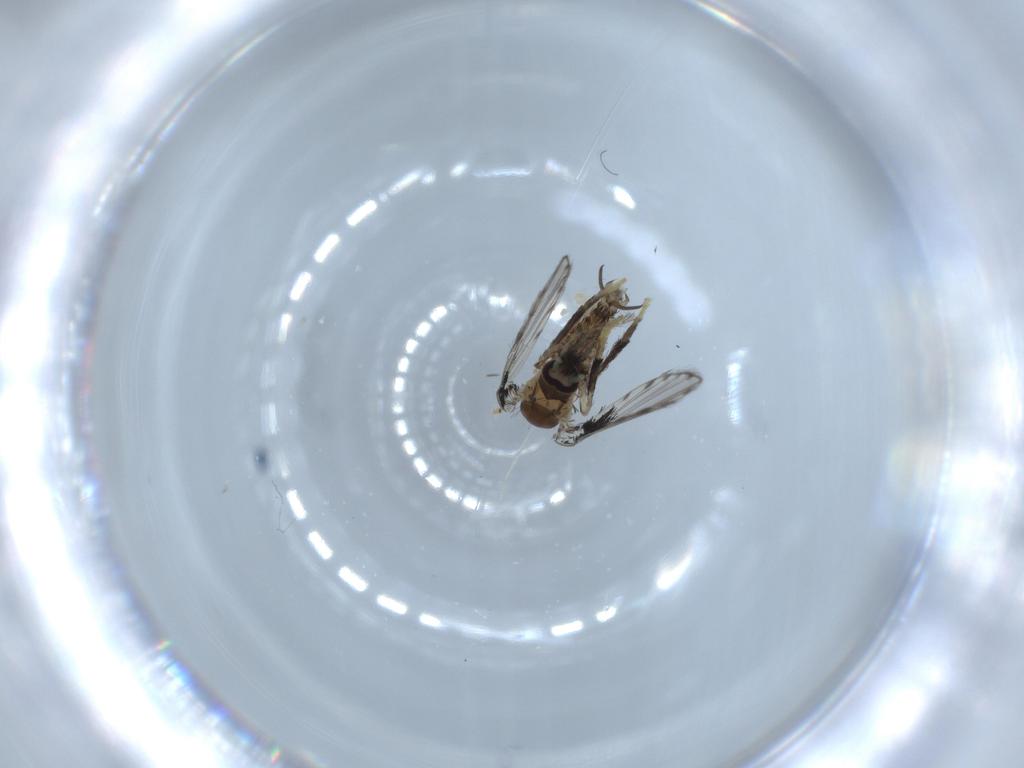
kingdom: Animalia
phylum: Arthropoda
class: Insecta
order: Diptera
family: Psychodidae
